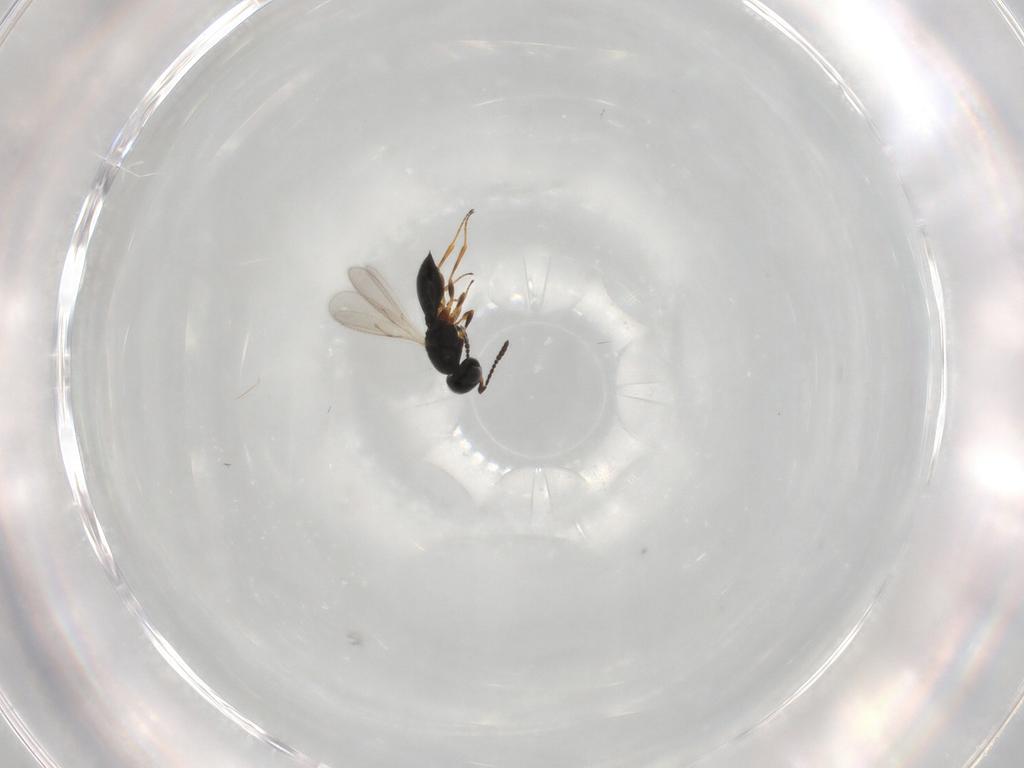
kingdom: Animalia
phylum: Arthropoda
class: Insecta
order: Hymenoptera
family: Scelionidae
